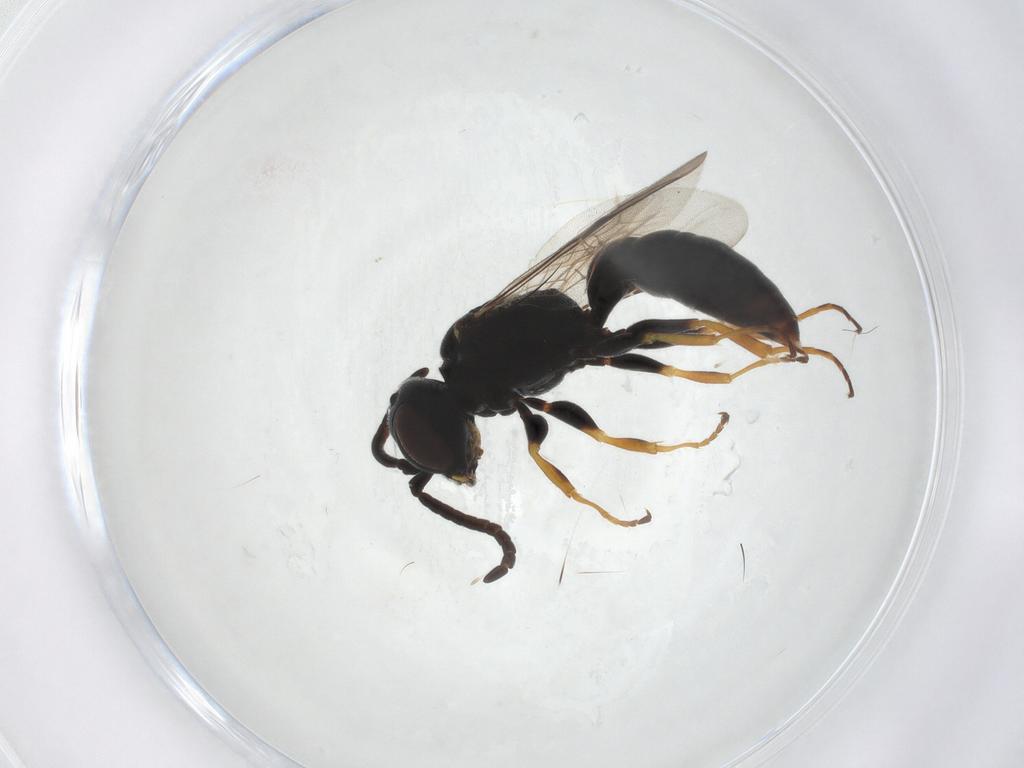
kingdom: Animalia
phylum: Arthropoda
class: Insecta
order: Hymenoptera
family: Pemphredonidae
